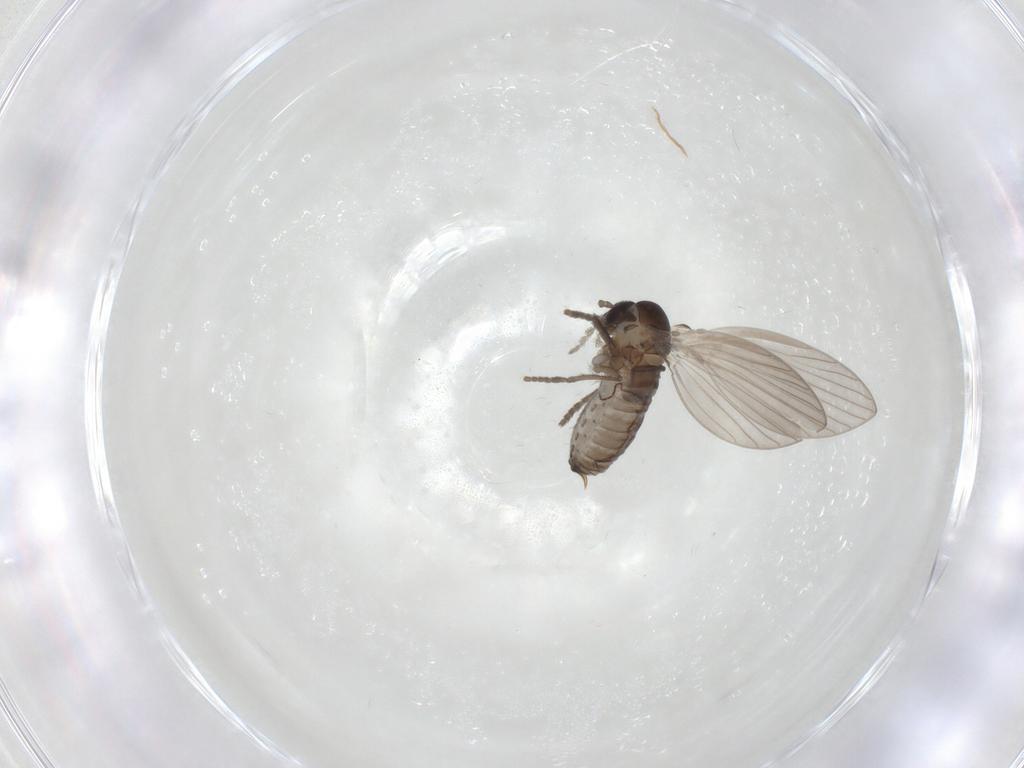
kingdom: Animalia
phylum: Arthropoda
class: Insecta
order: Diptera
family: Psychodidae
